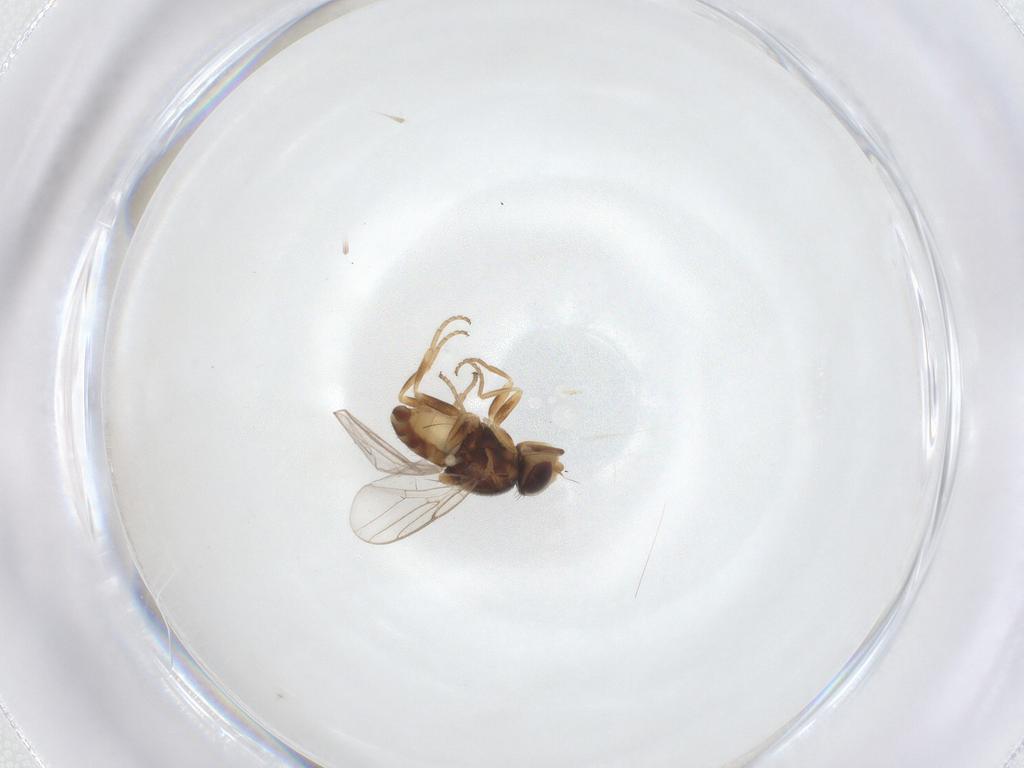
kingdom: Animalia
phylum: Arthropoda
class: Insecta
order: Diptera
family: Chloropidae
